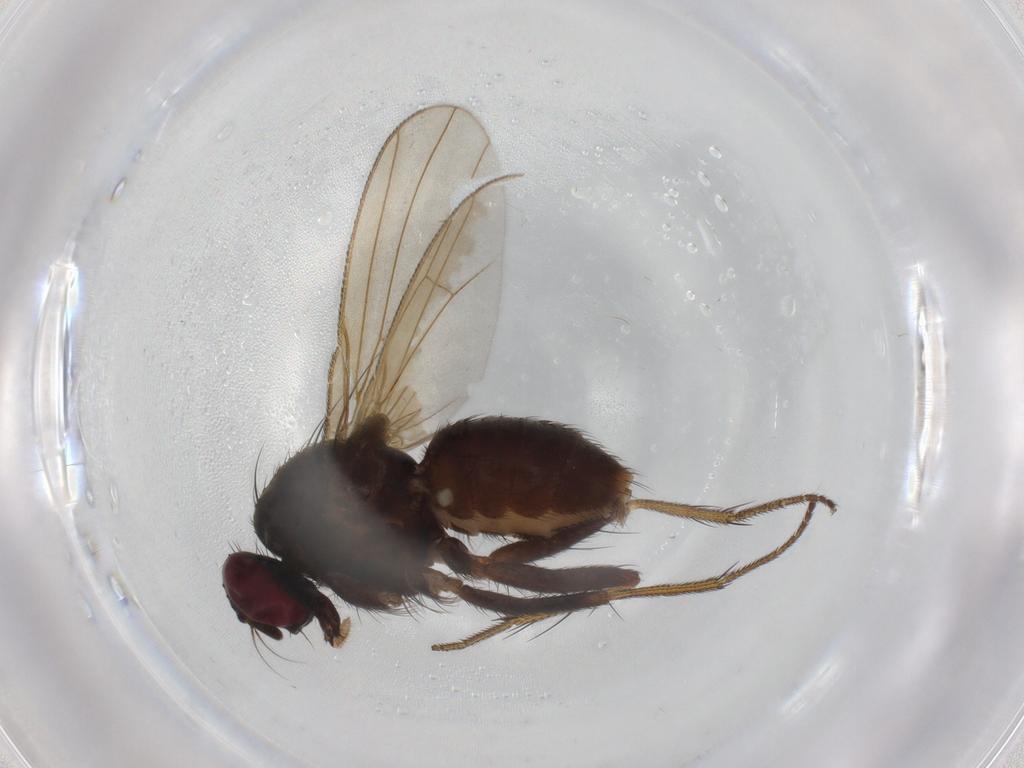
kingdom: Animalia
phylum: Arthropoda
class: Insecta
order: Diptera
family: Muscidae
